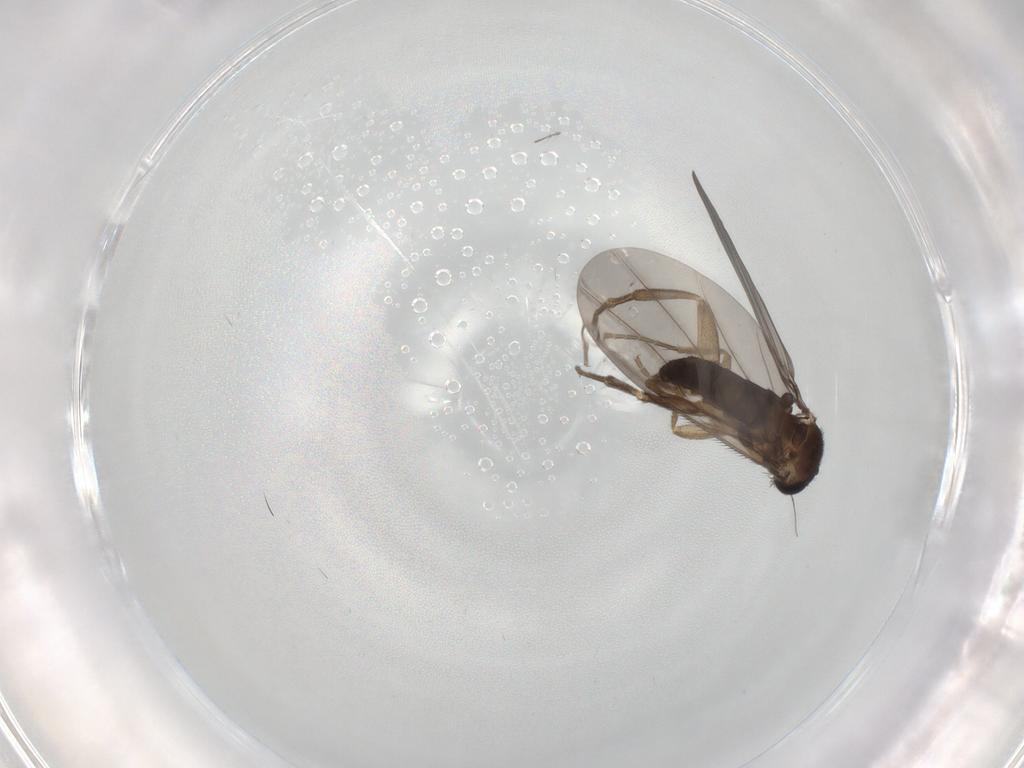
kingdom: Animalia
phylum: Arthropoda
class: Insecta
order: Diptera
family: Phoridae
